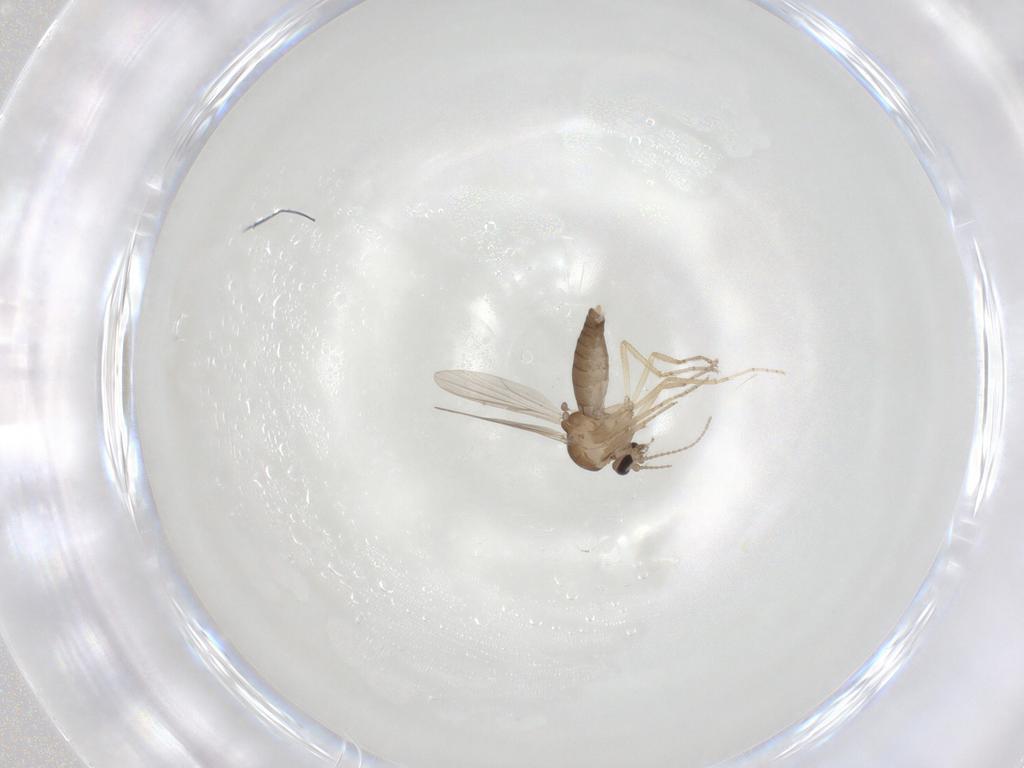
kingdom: Animalia
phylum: Arthropoda
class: Insecta
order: Diptera
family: Ceratopogonidae
